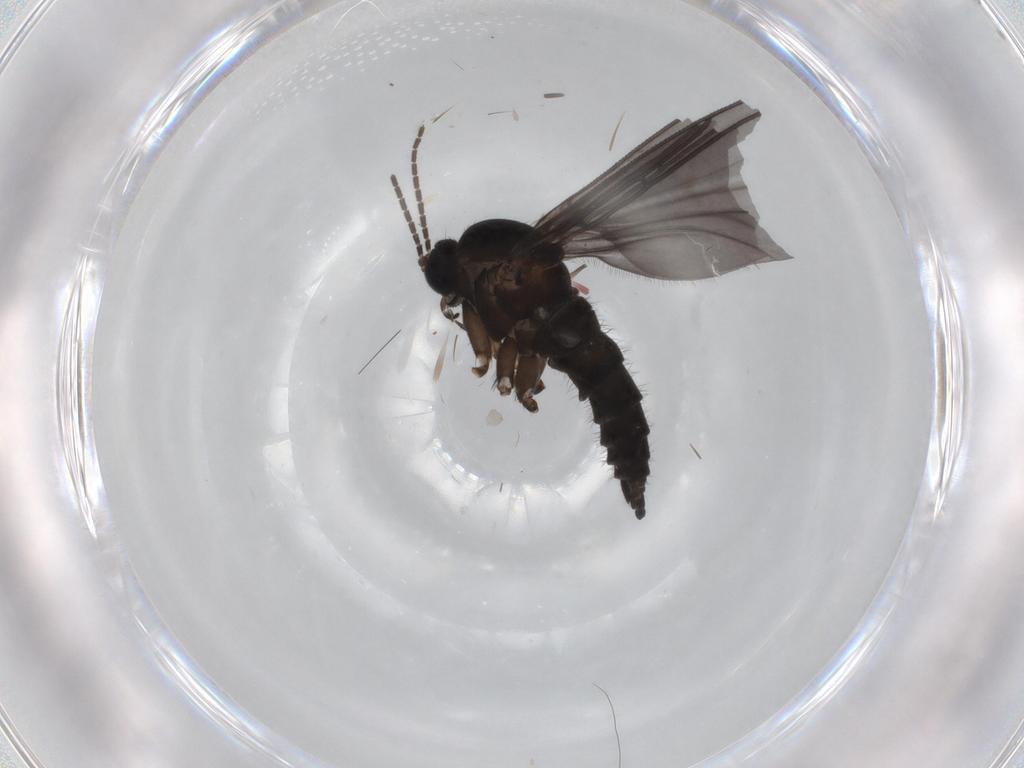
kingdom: Animalia
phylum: Arthropoda
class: Insecta
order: Diptera
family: Sciaridae
